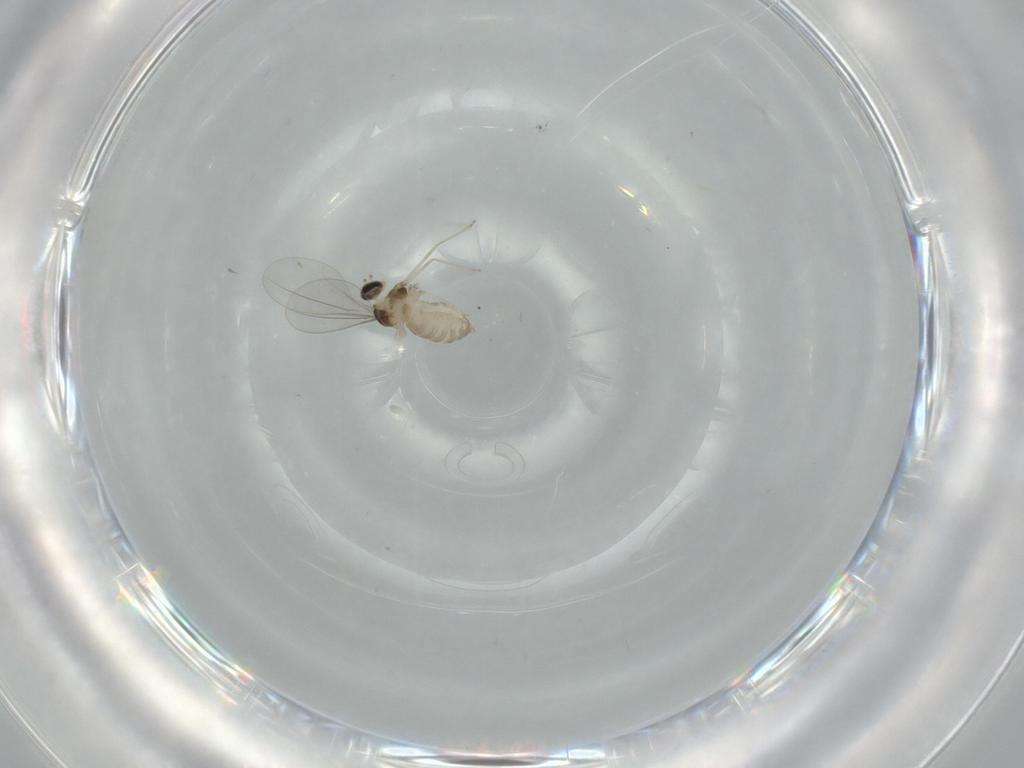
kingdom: Animalia
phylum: Arthropoda
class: Insecta
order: Diptera
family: Cecidomyiidae
